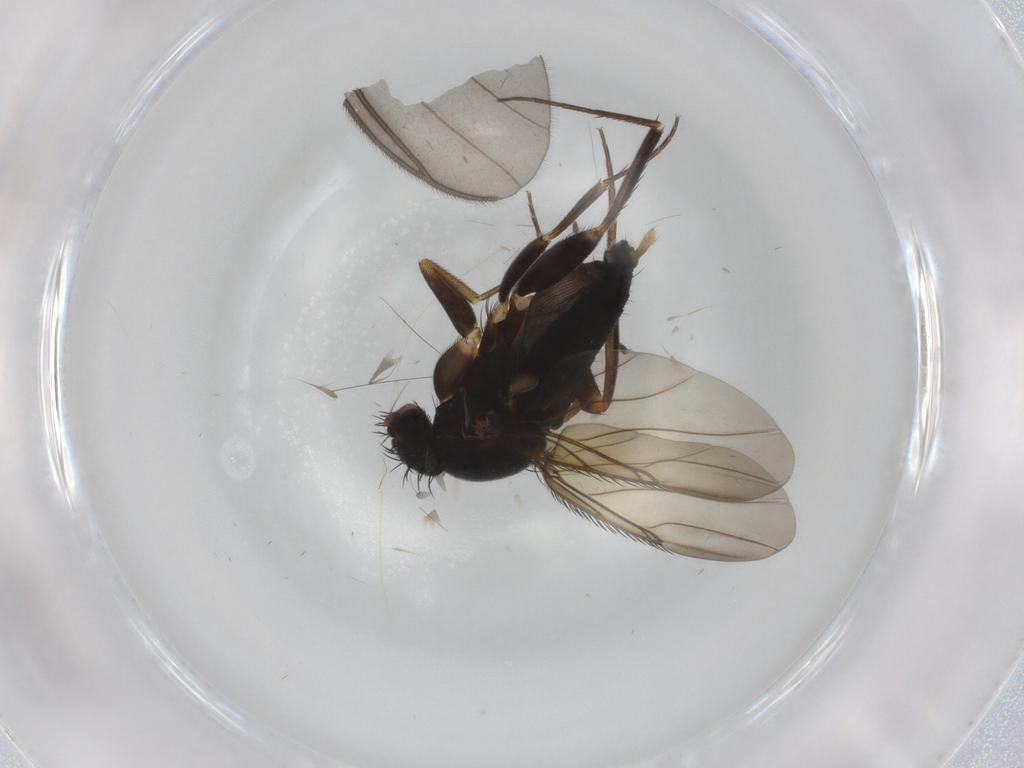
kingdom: Animalia
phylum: Arthropoda
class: Insecta
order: Diptera
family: Phoridae
